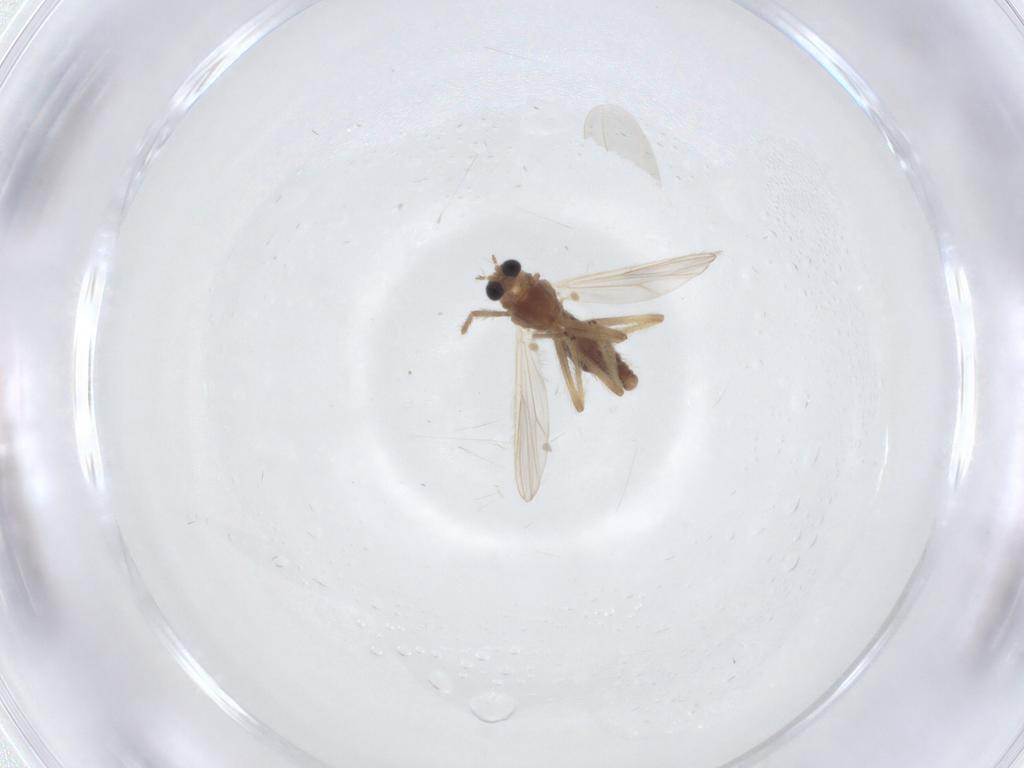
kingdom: Animalia
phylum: Arthropoda
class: Insecta
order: Diptera
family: Chironomidae
